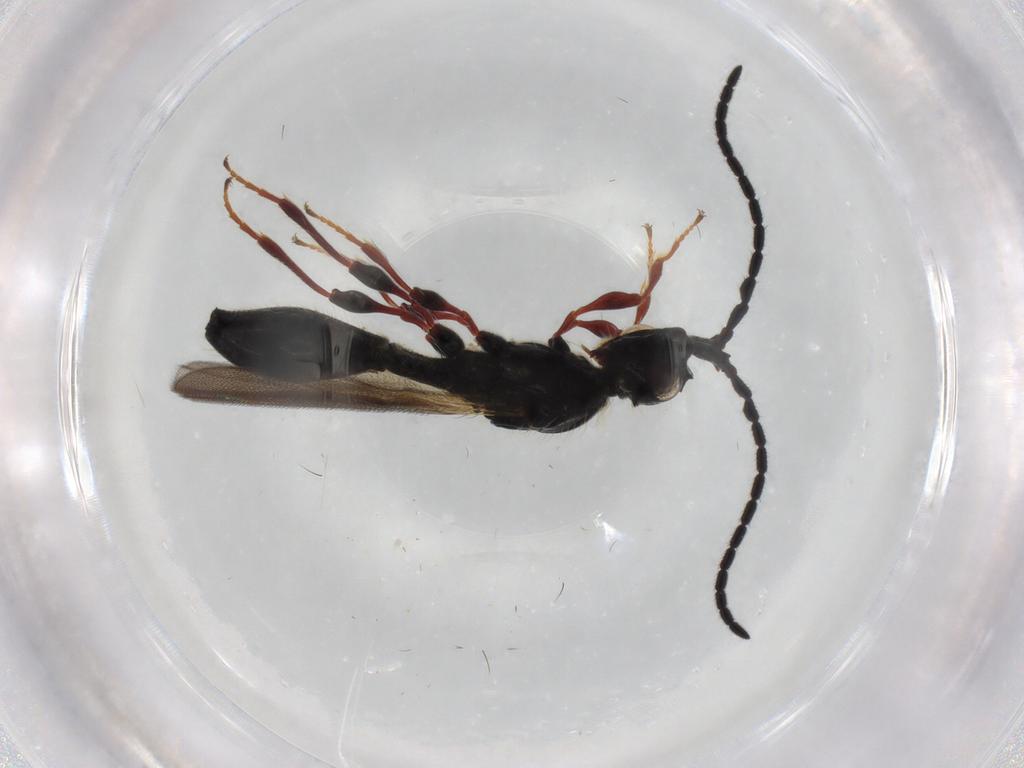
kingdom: Animalia
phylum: Arthropoda
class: Insecta
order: Hymenoptera
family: Diapriidae
